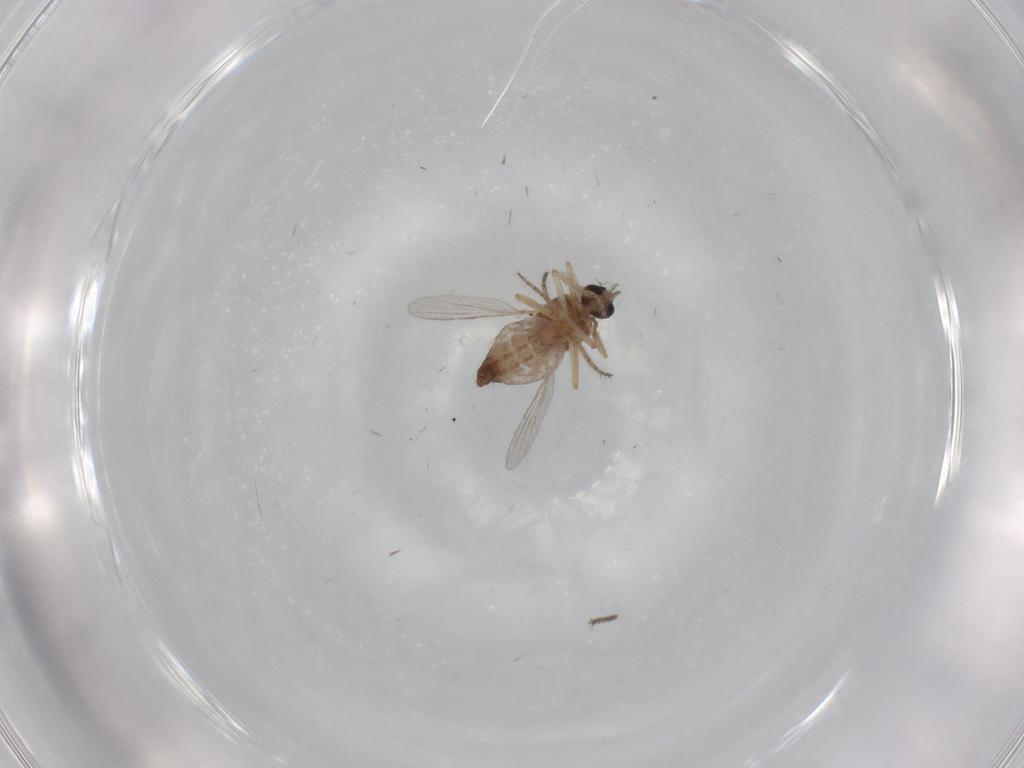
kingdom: Animalia
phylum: Arthropoda
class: Insecta
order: Diptera
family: Ceratopogonidae
